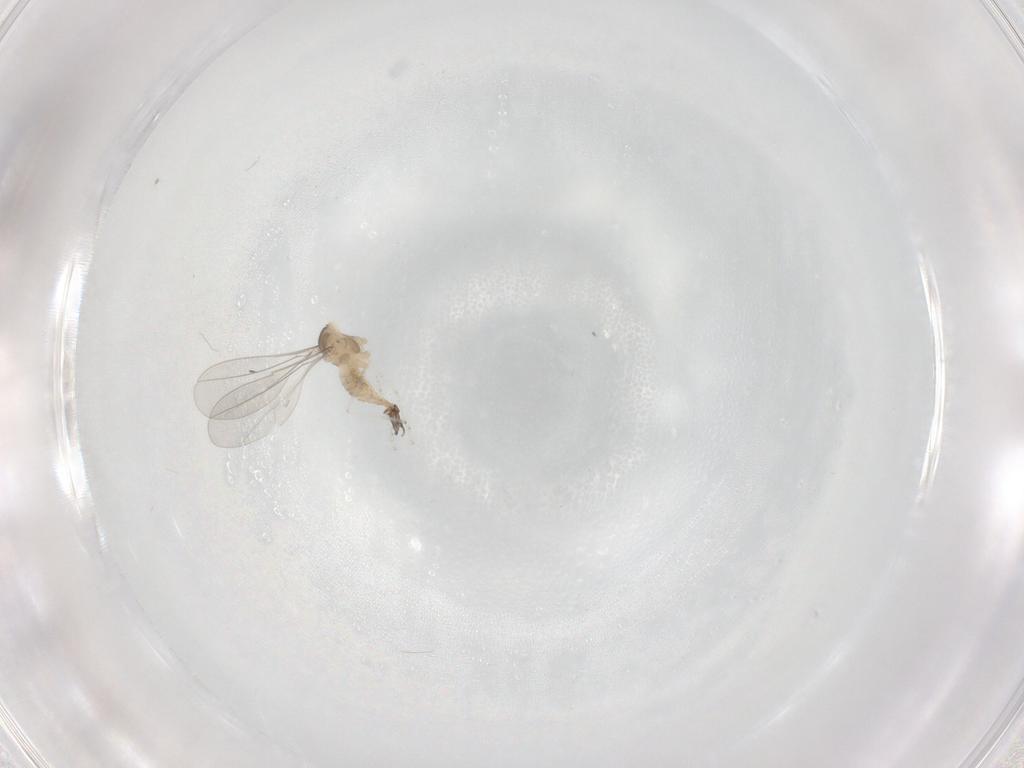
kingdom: Animalia
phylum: Arthropoda
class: Insecta
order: Diptera
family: Cecidomyiidae
